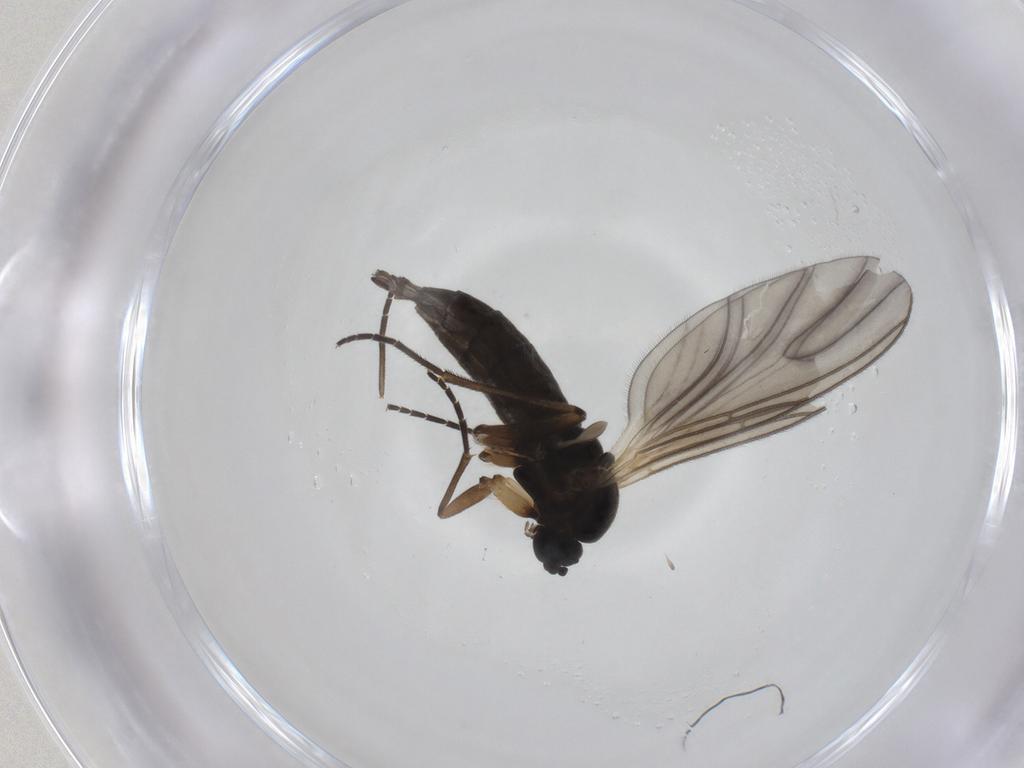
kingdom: Animalia
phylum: Arthropoda
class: Insecta
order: Diptera
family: Sciaridae
